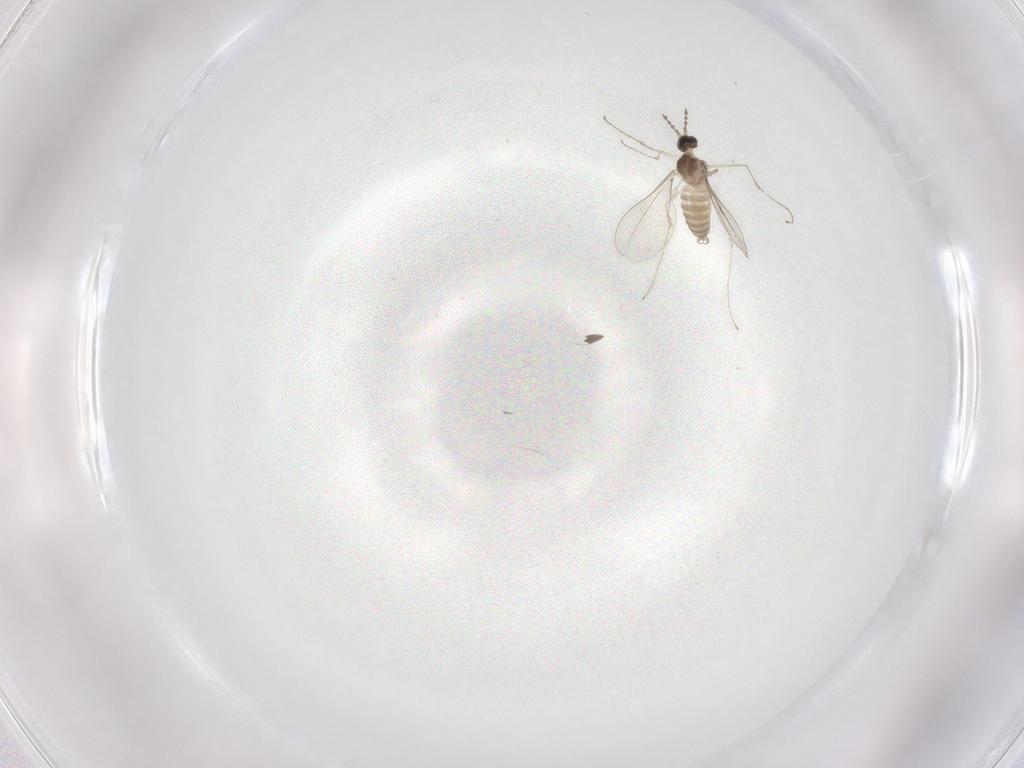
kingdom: Animalia
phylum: Arthropoda
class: Insecta
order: Diptera
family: Cecidomyiidae
